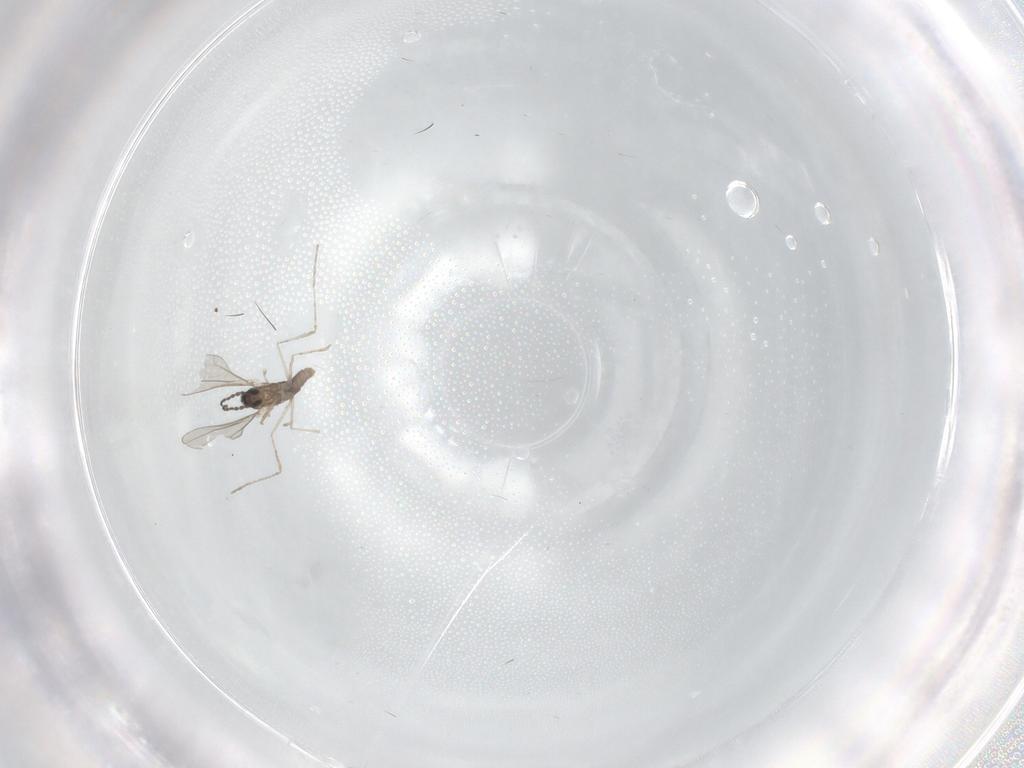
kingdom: Animalia
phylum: Arthropoda
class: Insecta
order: Diptera
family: Cecidomyiidae
